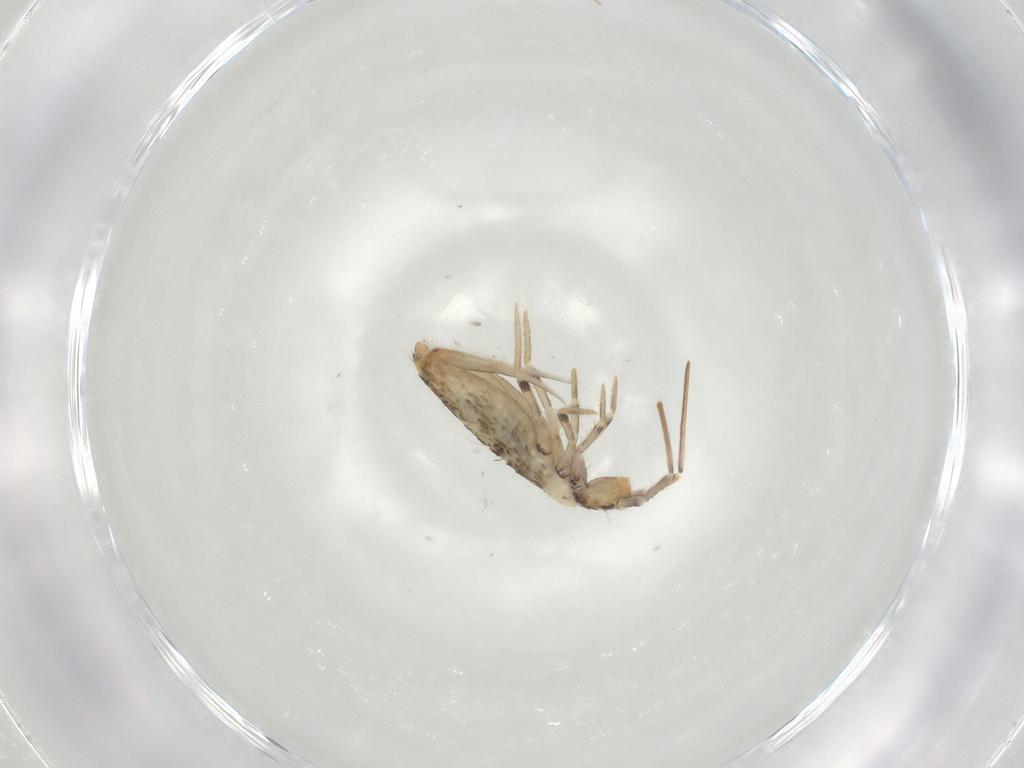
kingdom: Animalia
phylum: Arthropoda
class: Collembola
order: Entomobryomorpha
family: Entomobryidae
